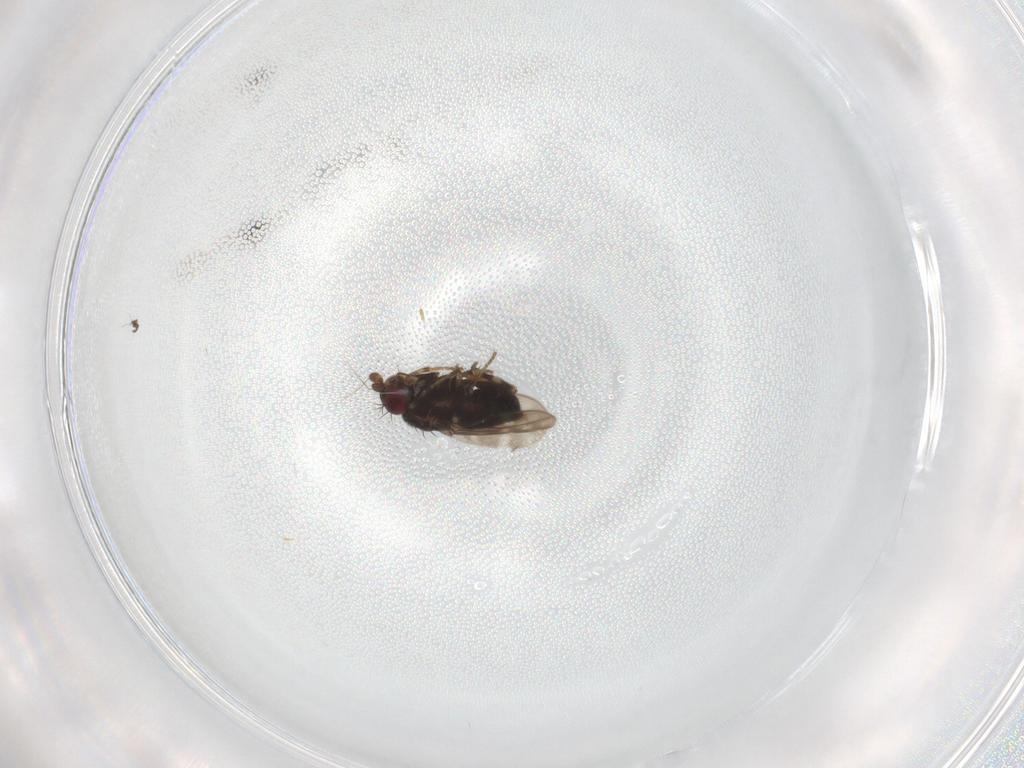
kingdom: Animalia
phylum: Arthropoda
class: Insecta
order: Diptera
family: Sphaeroceridae
